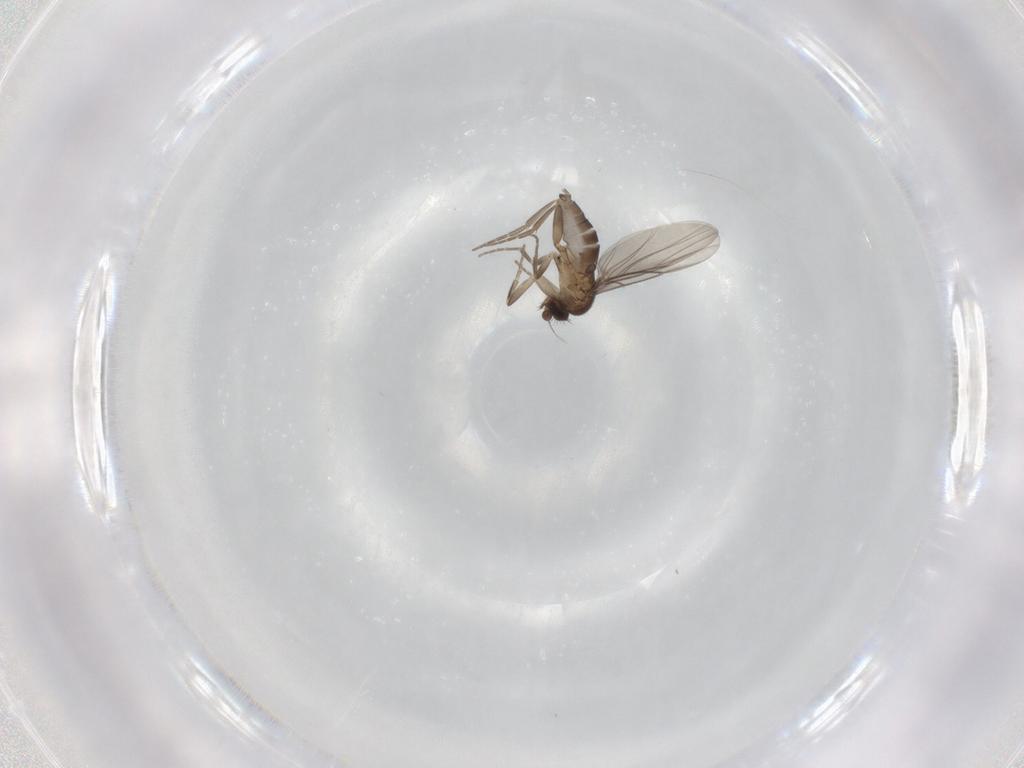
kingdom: Animalia
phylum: Arthropoda
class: Insecta
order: Diptera
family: Phoridae
